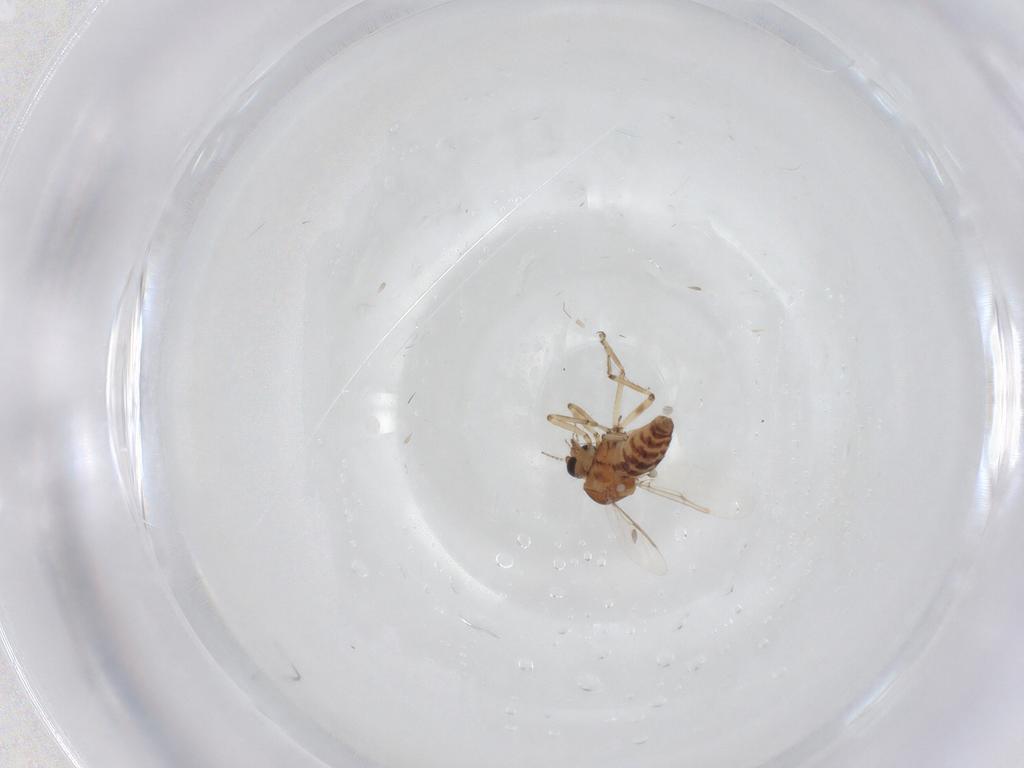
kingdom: Animalia
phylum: Arthropoda
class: Insecta
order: Diptera
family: Ceratopogonidae
